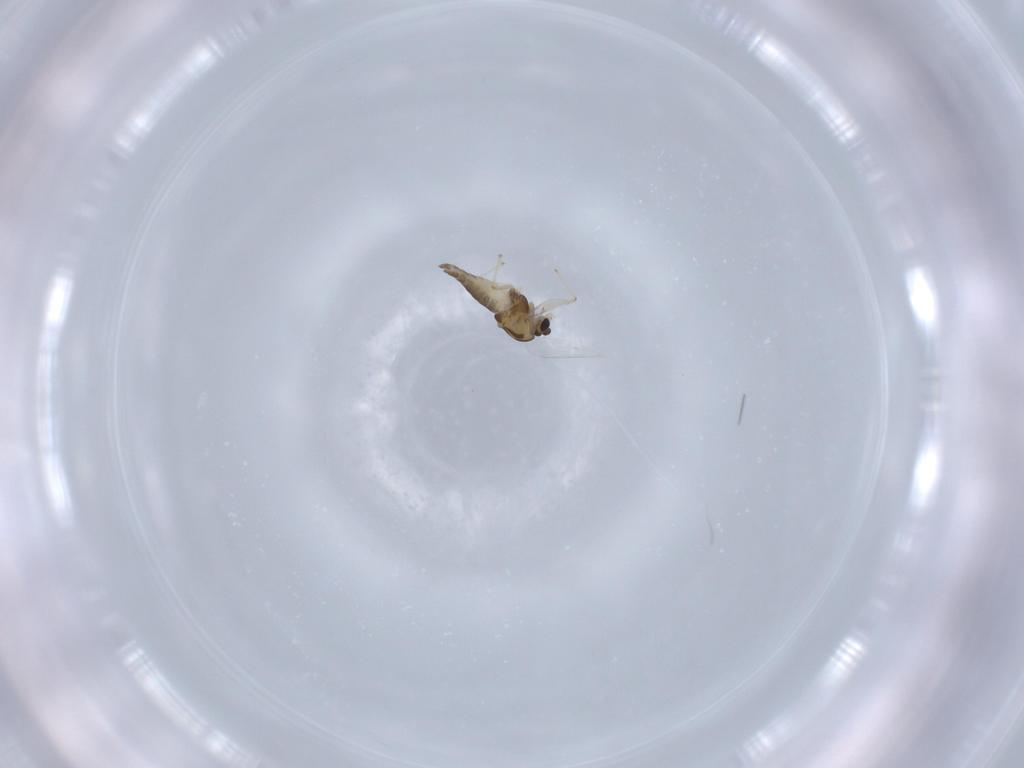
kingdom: Animalia
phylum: Arthropoda
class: Insecta
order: Diptera
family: Chironomidae
